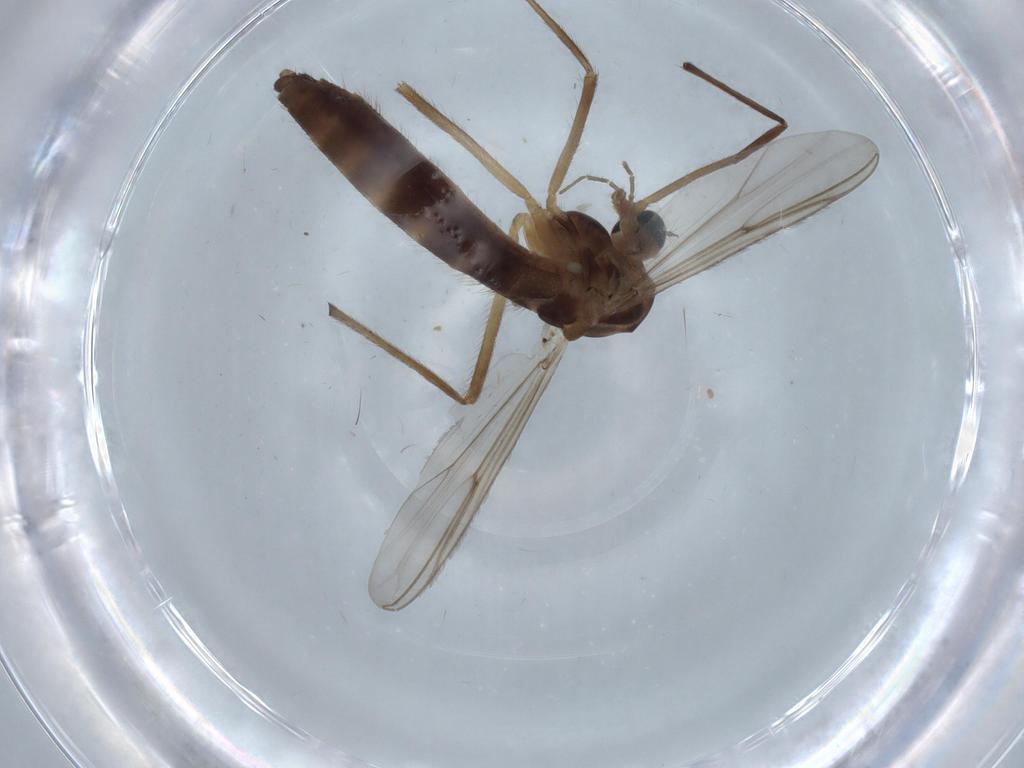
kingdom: Animalia
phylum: Arthropoda
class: Insecta
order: Diptera
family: Chironomidae
